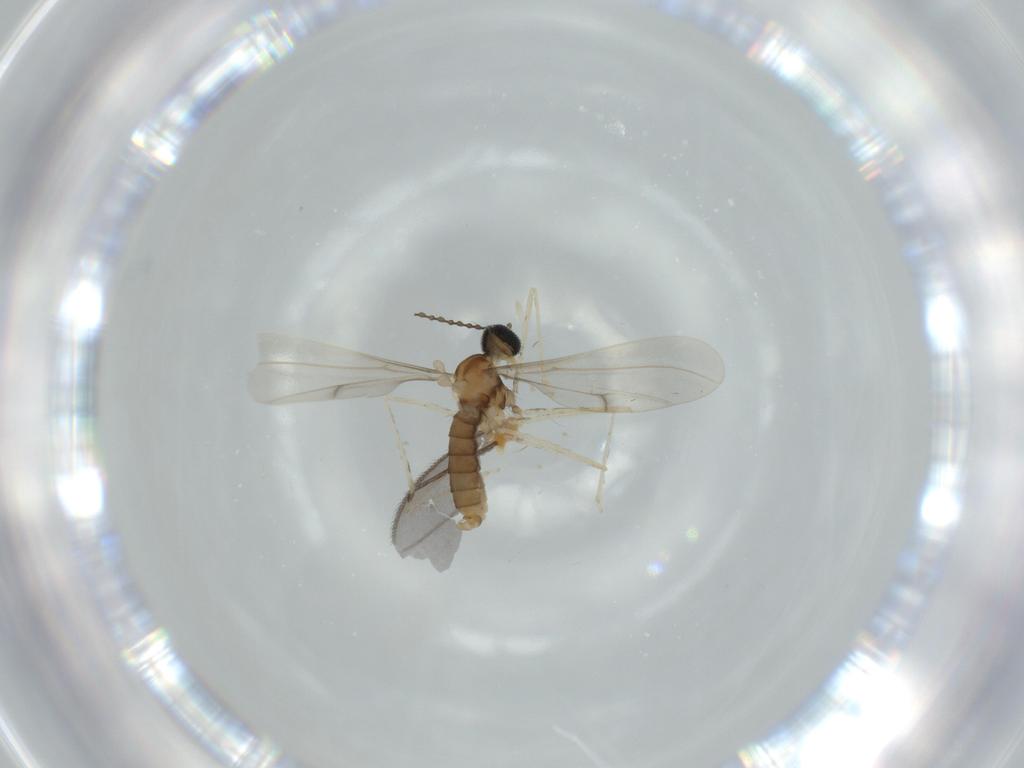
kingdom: Animalia
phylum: Arthropoda
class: Insecta
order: Diptera
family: Cecidomyiidae
